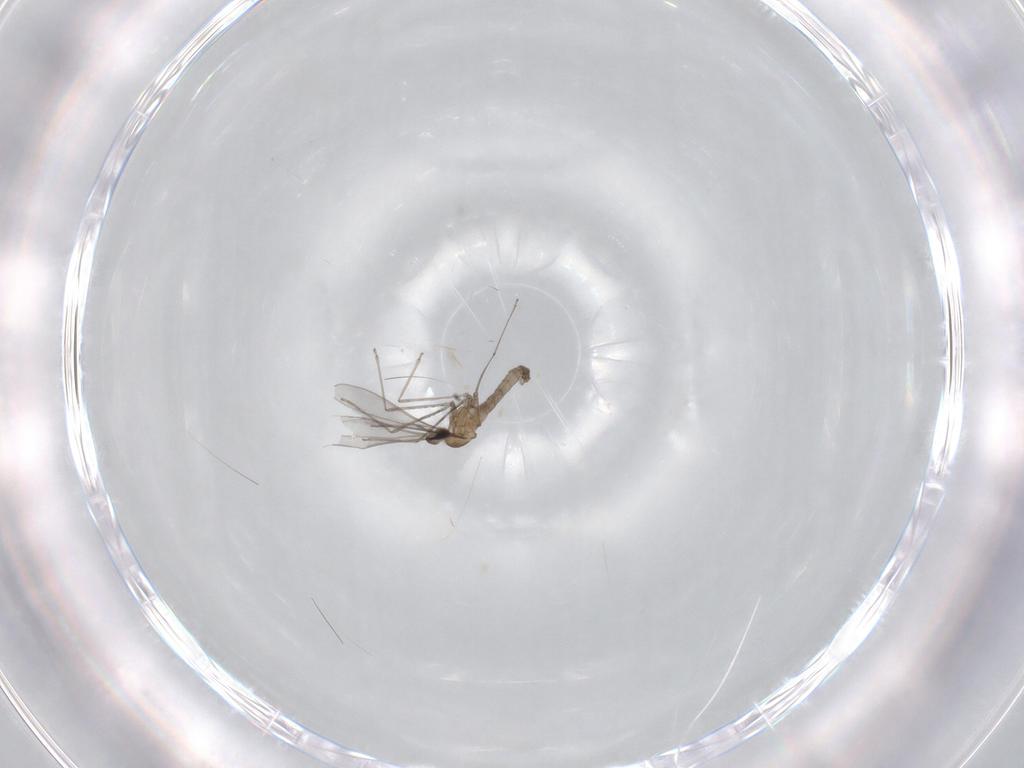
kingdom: Animalia
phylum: Arthropoda
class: Insecta
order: Diptera
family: Cecidomyiidae
